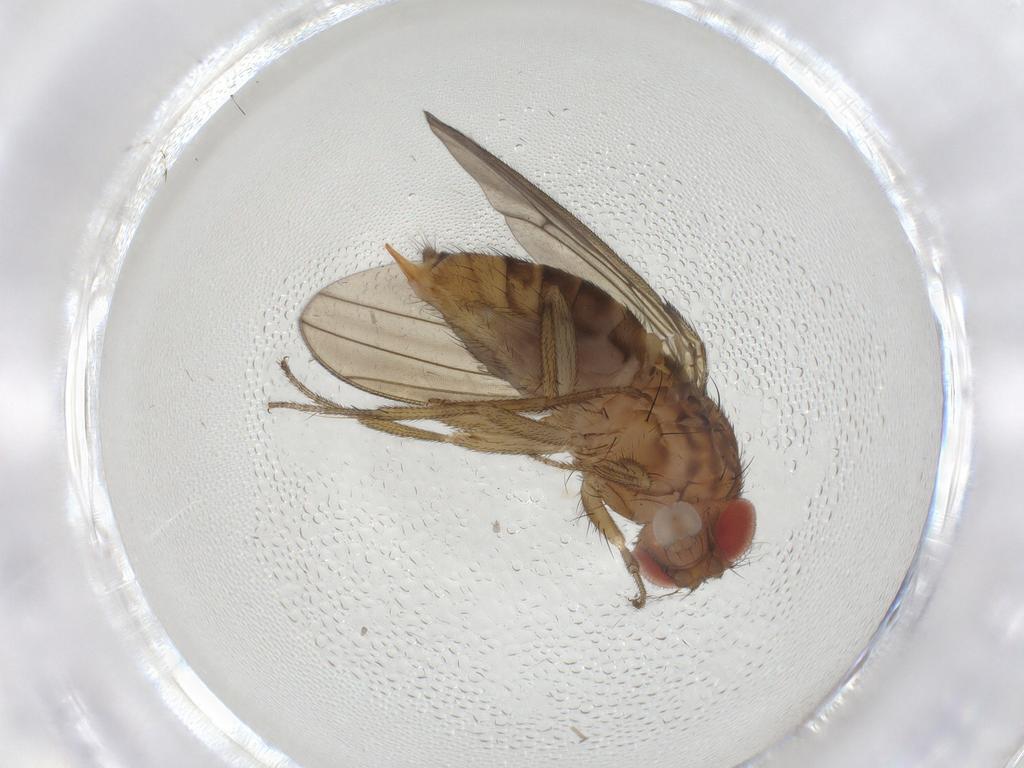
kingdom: Animalia
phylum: Arthropoda
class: Insecta
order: Diptera
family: Drosophilidae
